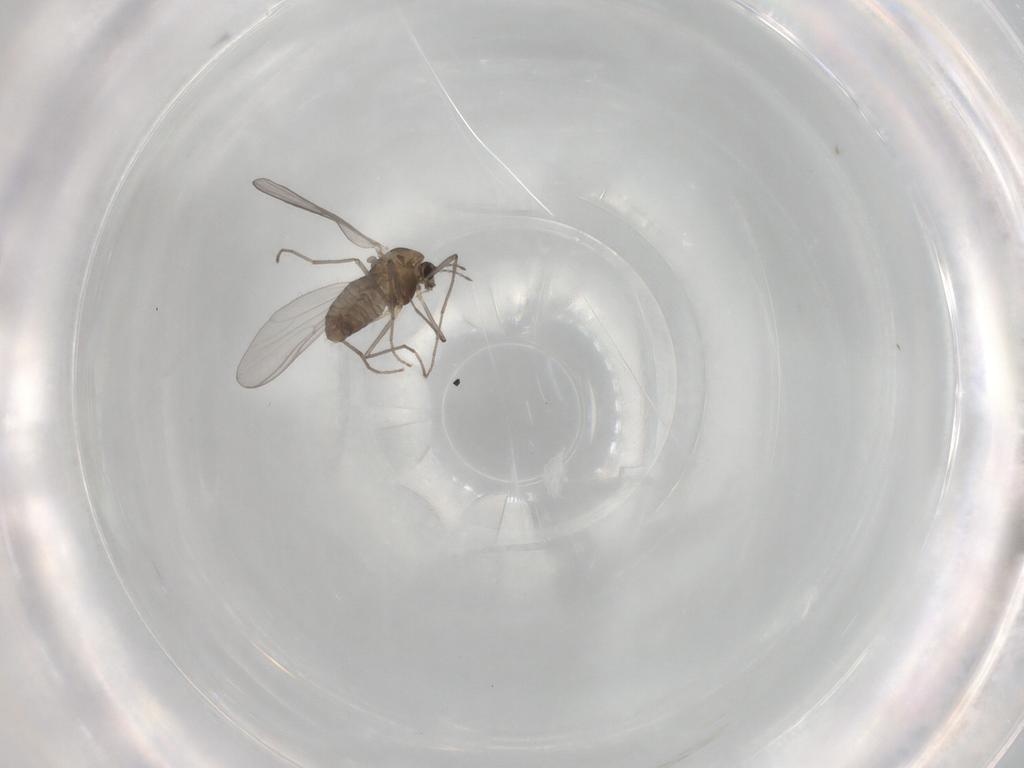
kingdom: Animalia
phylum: Arthropoda
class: Insecta
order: Diptera
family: Chironomidae
